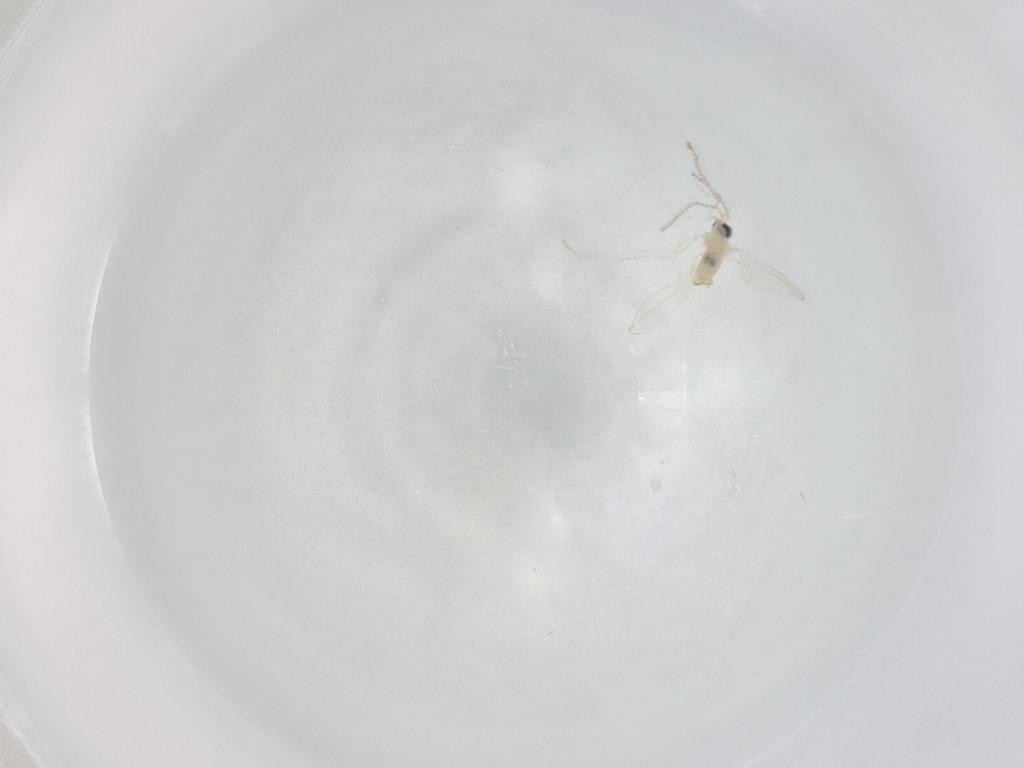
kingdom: Animalia
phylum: Arthropoda
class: Insecta
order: Diptera
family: Cecidomyiidae
